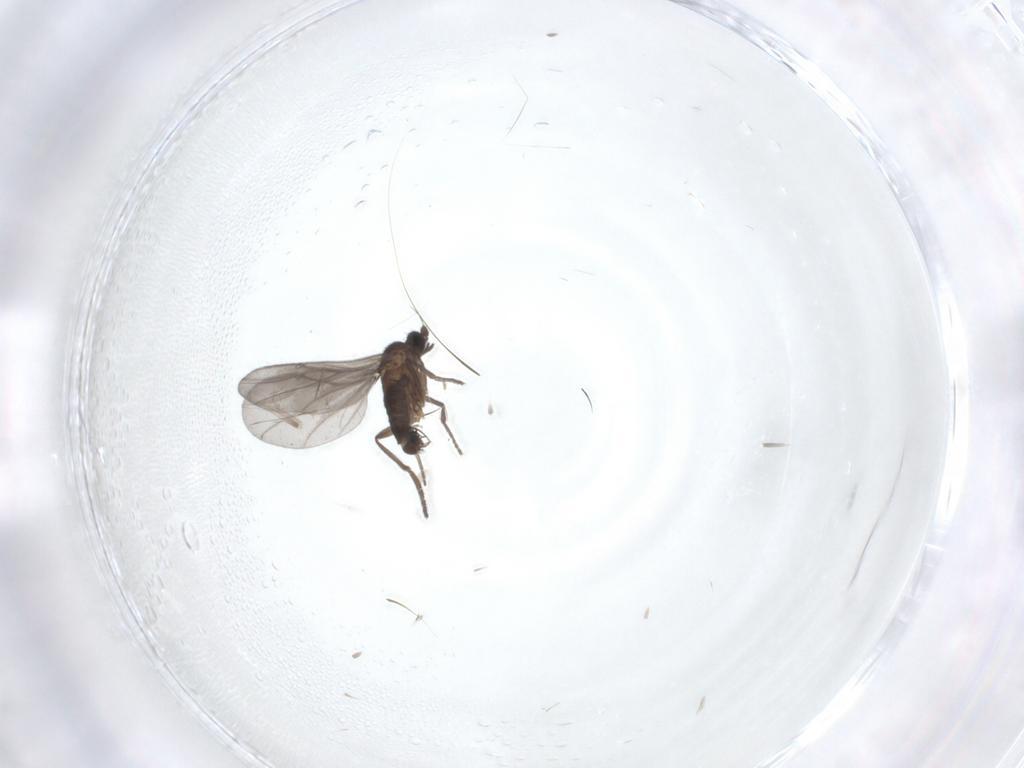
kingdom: Animalia
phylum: Arthropoda
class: Insecta
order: Diptera
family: Phoridae
